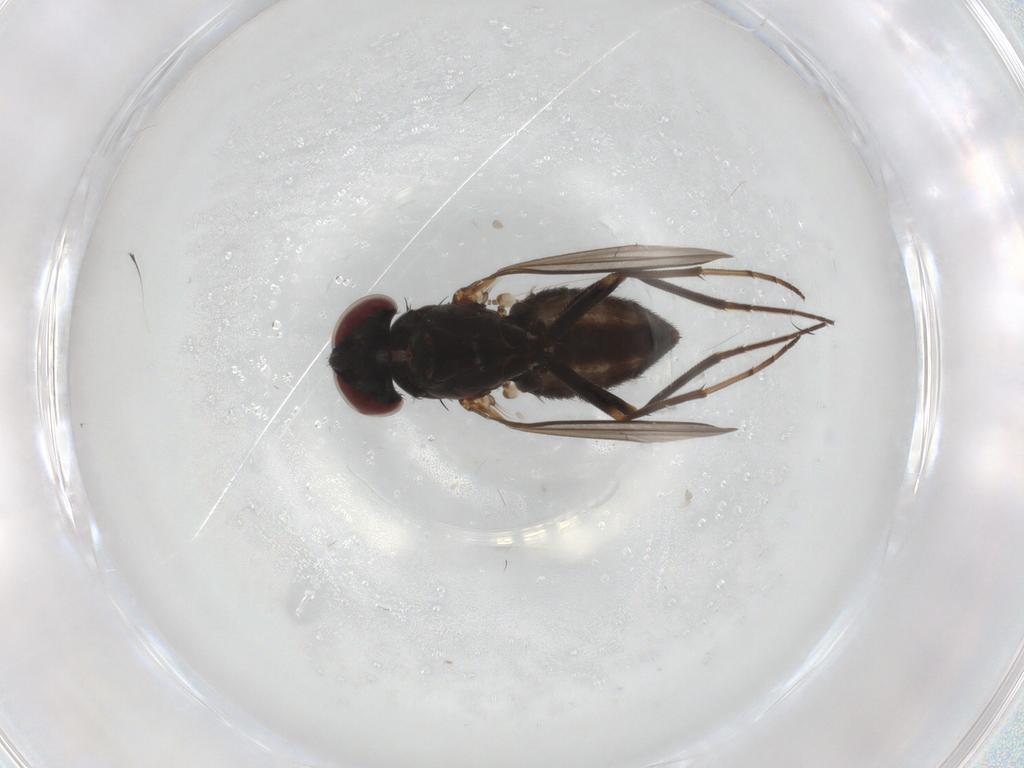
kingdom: Animalia
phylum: Arthropoda
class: Insecta
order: Diptera
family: Sciaridae
